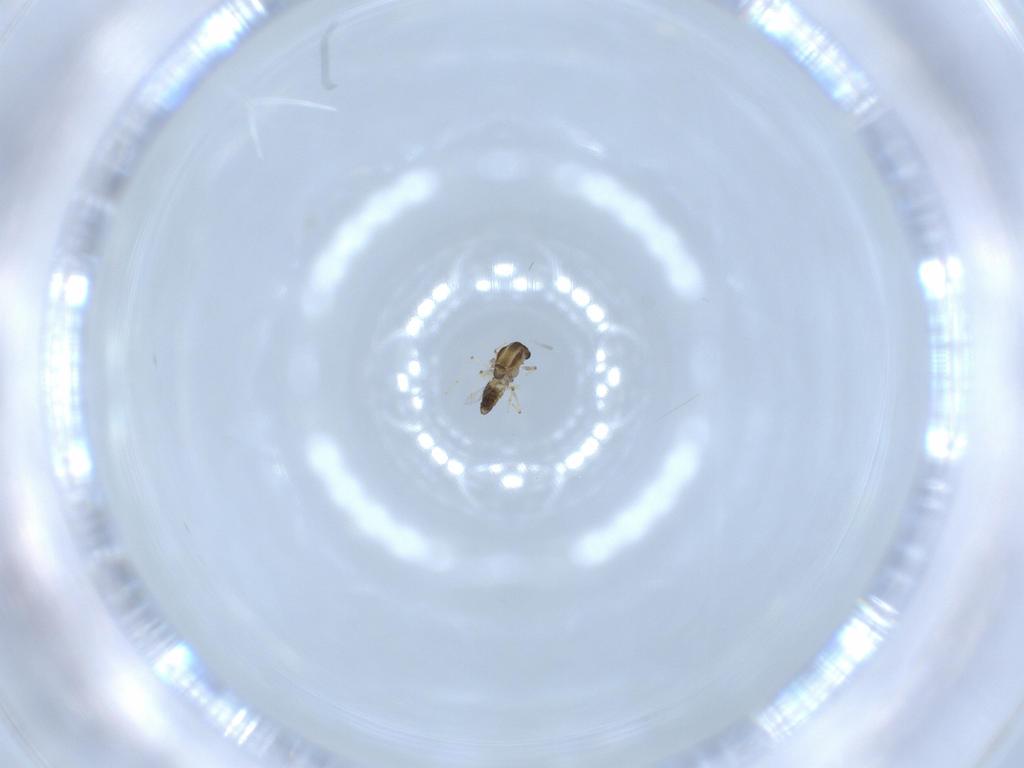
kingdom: Animalia
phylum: Arthropoda
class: Insecta
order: Diptera
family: Chironomidae
